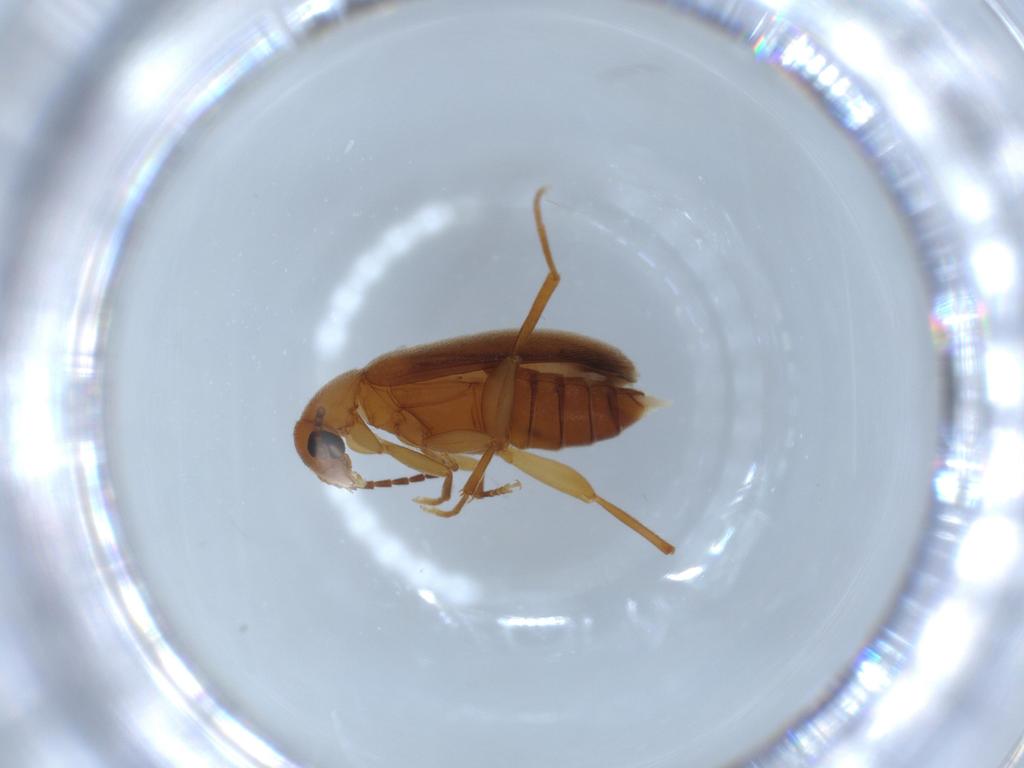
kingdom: Animalia
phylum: Arthropoda
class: Insecta
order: Coleoptera
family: Scraptiidae
